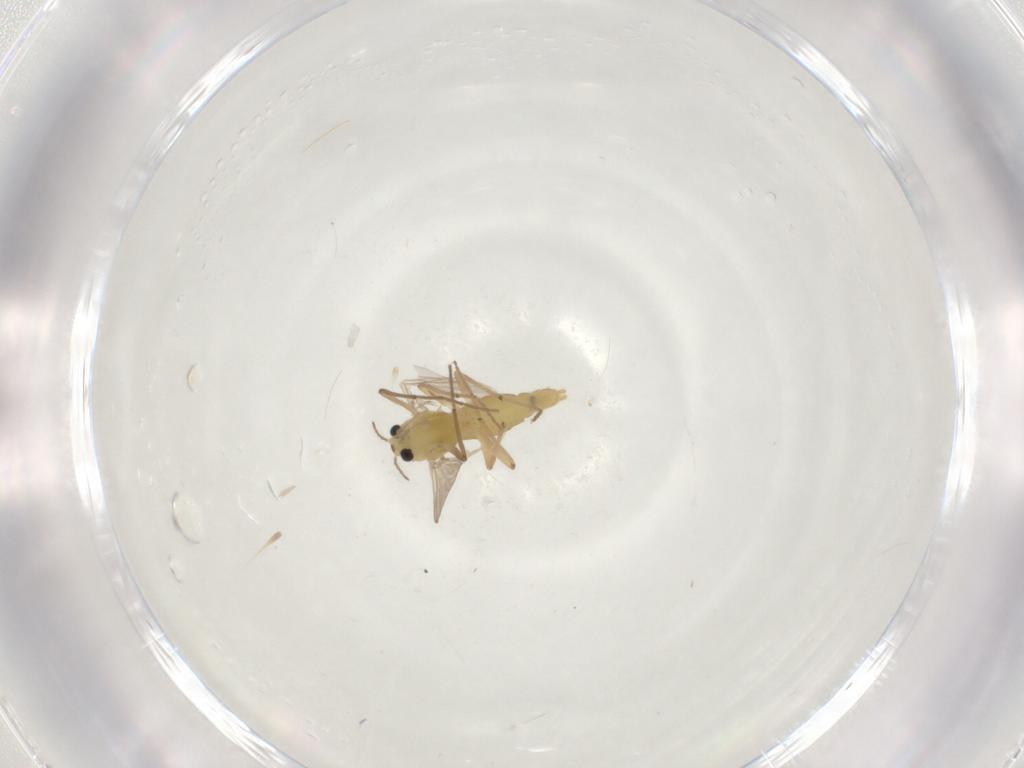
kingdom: Animalia
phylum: Arthropoda
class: Insecta
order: Diptera
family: Chironomidae
